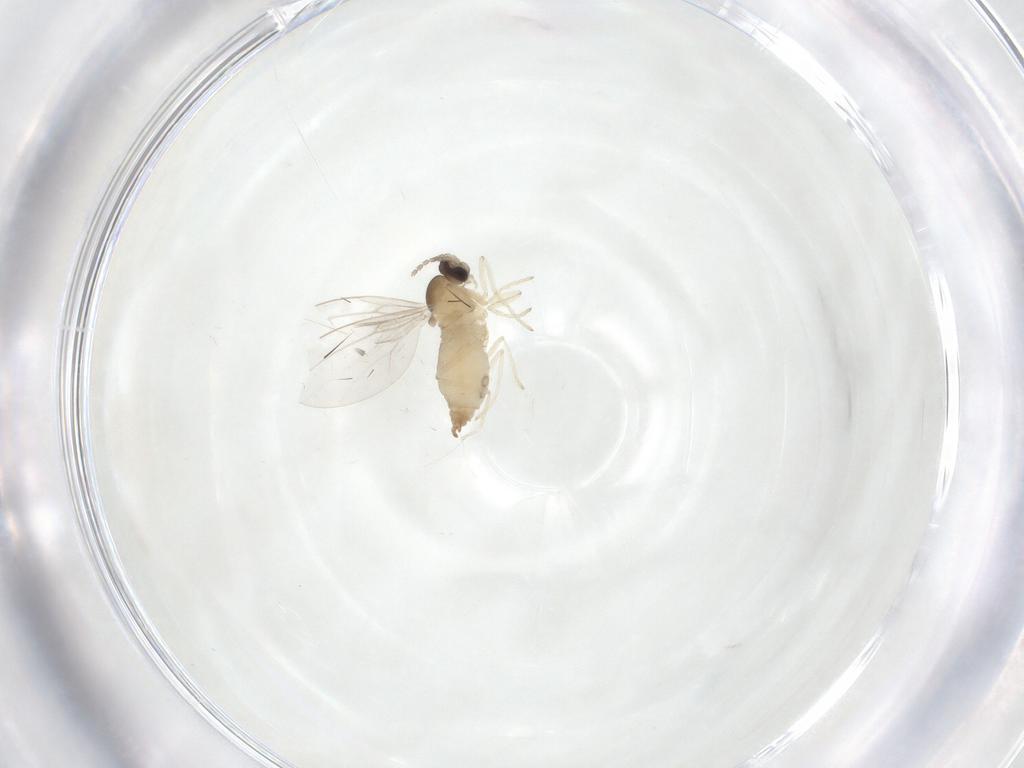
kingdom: Animalia
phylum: Arthropoda
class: Insecta
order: Diptera
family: Cecidomyiidae
